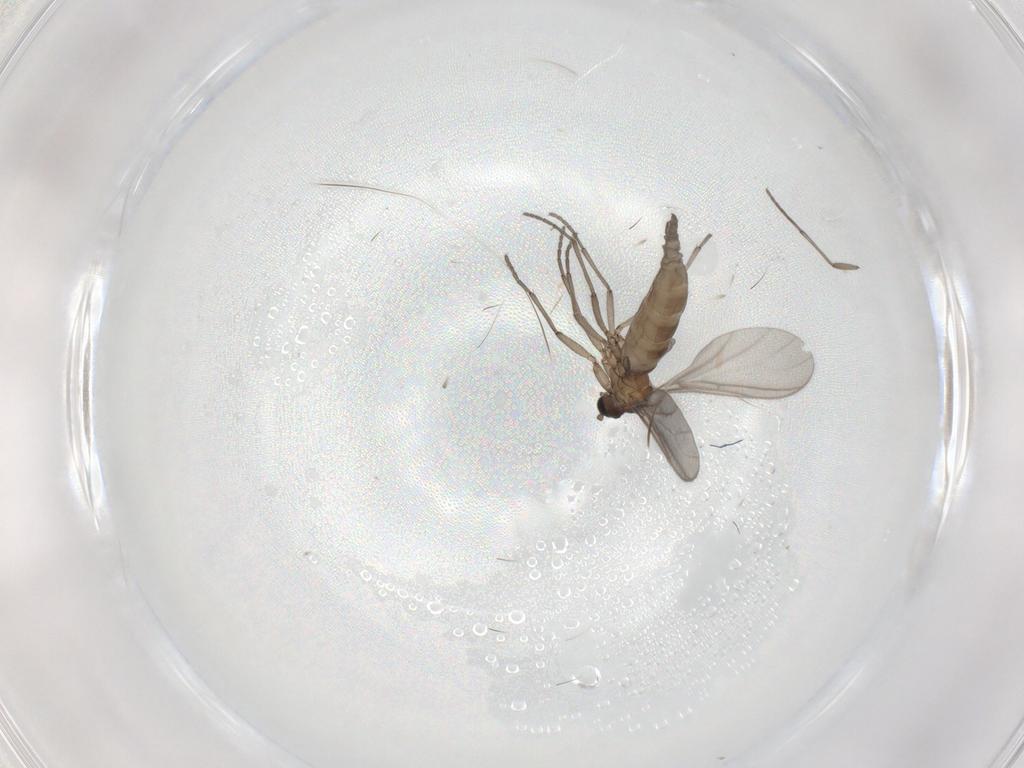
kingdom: Animalia
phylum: Arthropoda
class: Insecta
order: Diptera
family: Sciaridae
